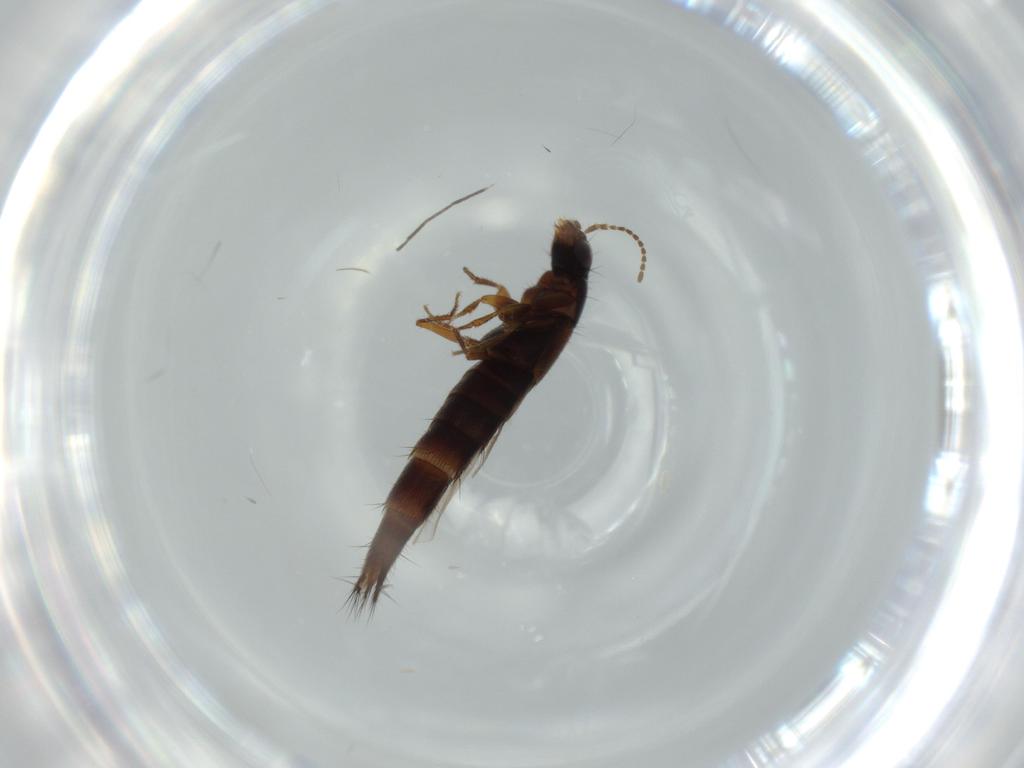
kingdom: Animalia
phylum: Arthropoda
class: Insecta
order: Coleoptera
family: Staphylinidae
